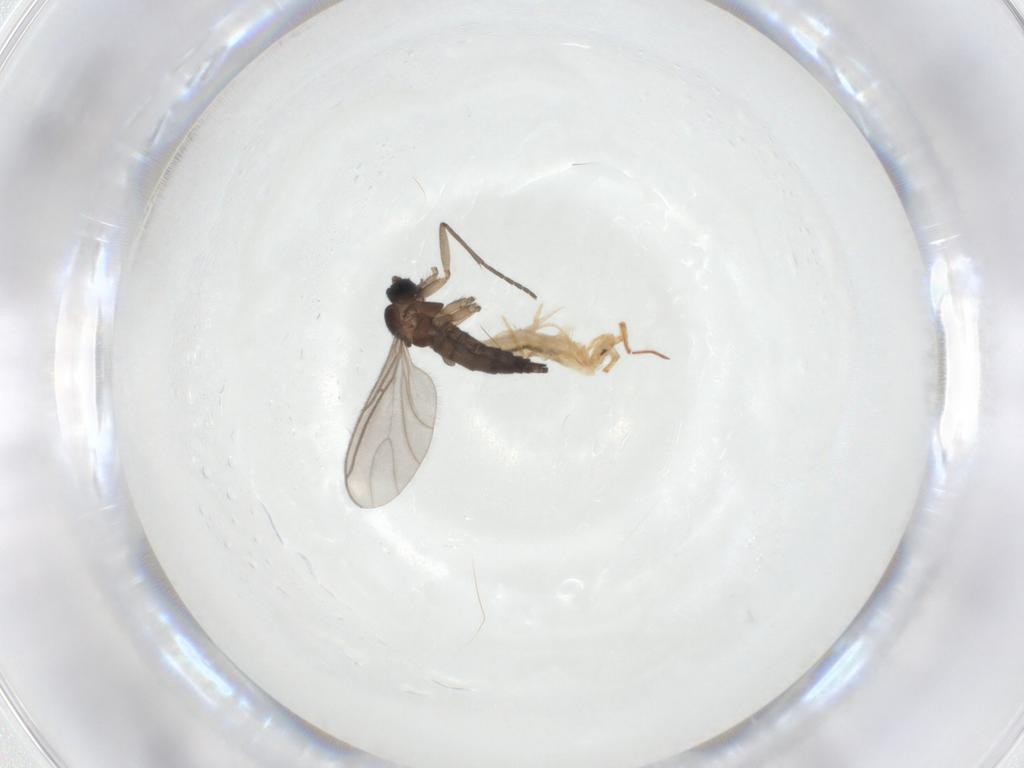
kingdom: Animalia
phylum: Arthropoda
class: Collembola
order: Entomobryomorpha
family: Entomobryidae
